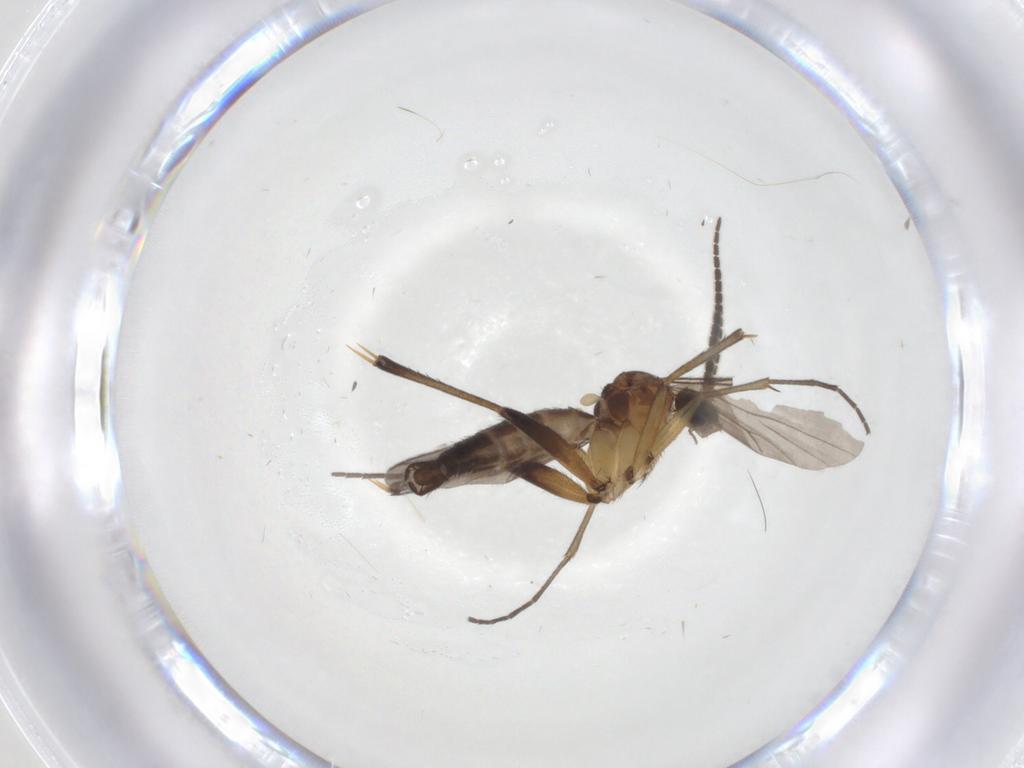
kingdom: Animalia
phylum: Arthropoda
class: Insecta
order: Diptera
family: Mycetophilidae
